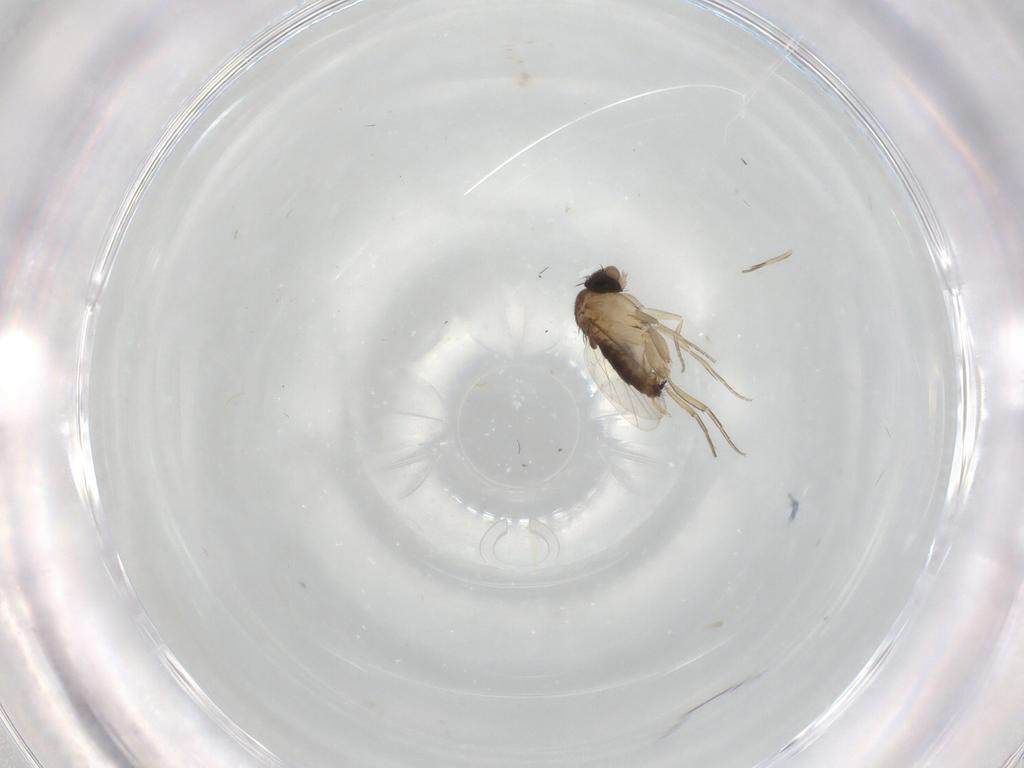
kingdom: Animalia
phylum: Arthropoda
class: Insecta
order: Diptera
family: Phoridae
